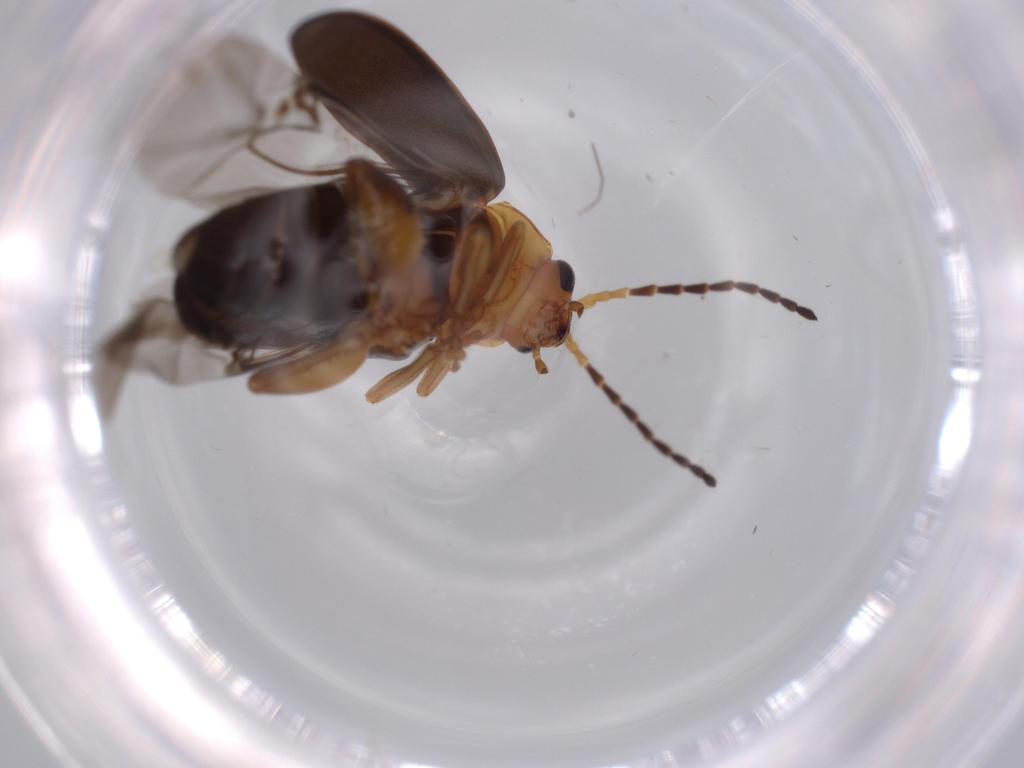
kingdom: Animalia
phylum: Arthropoda
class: Insecta
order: Coleoptera
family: Chrysomelidae
